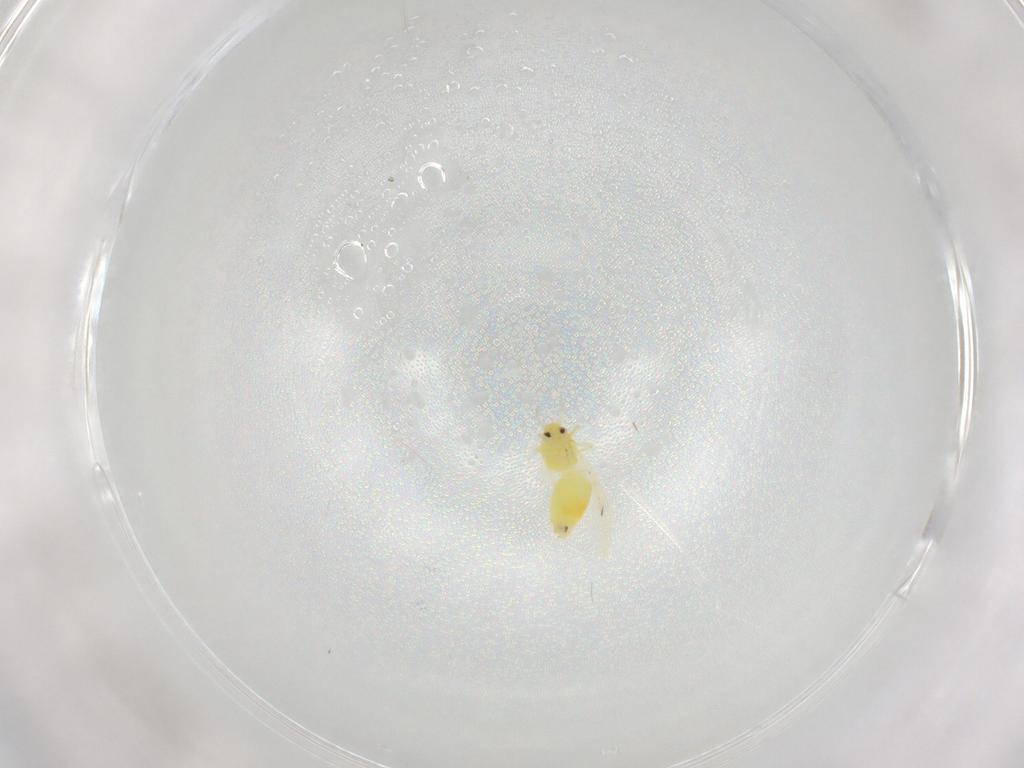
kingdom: Animalia
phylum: Arthropoda
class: Insecta
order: Hemiptera
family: Aleyrodidae
